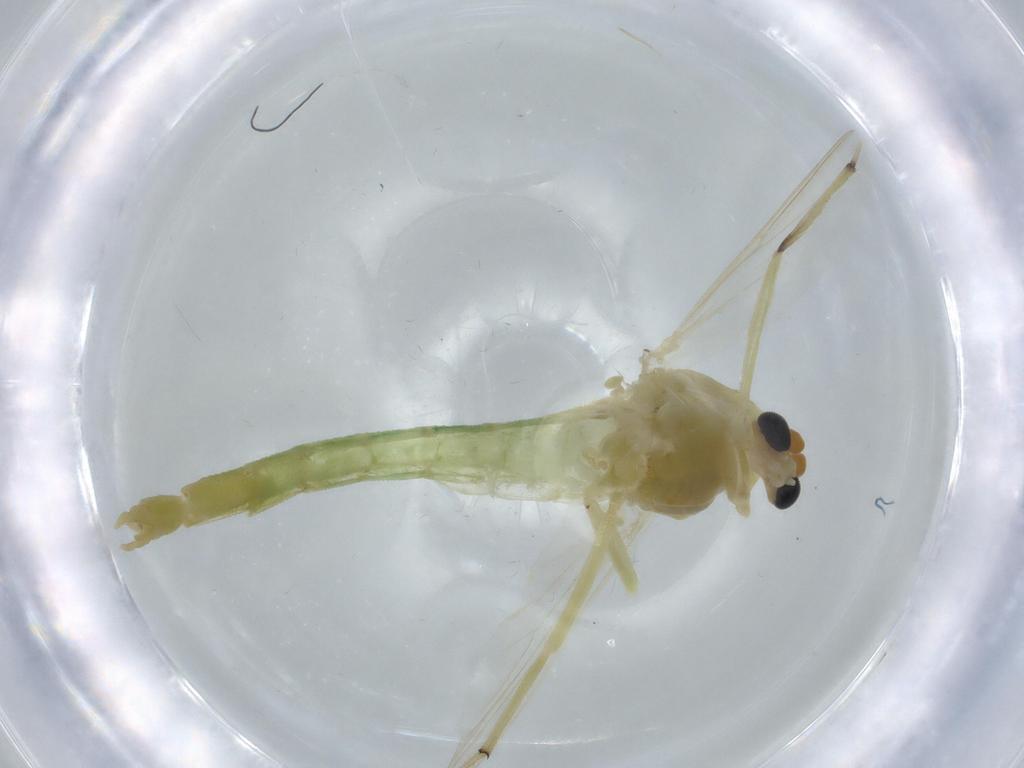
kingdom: Animalia
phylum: Arthropoda
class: Insecta
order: Diptera
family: Chironomidae
